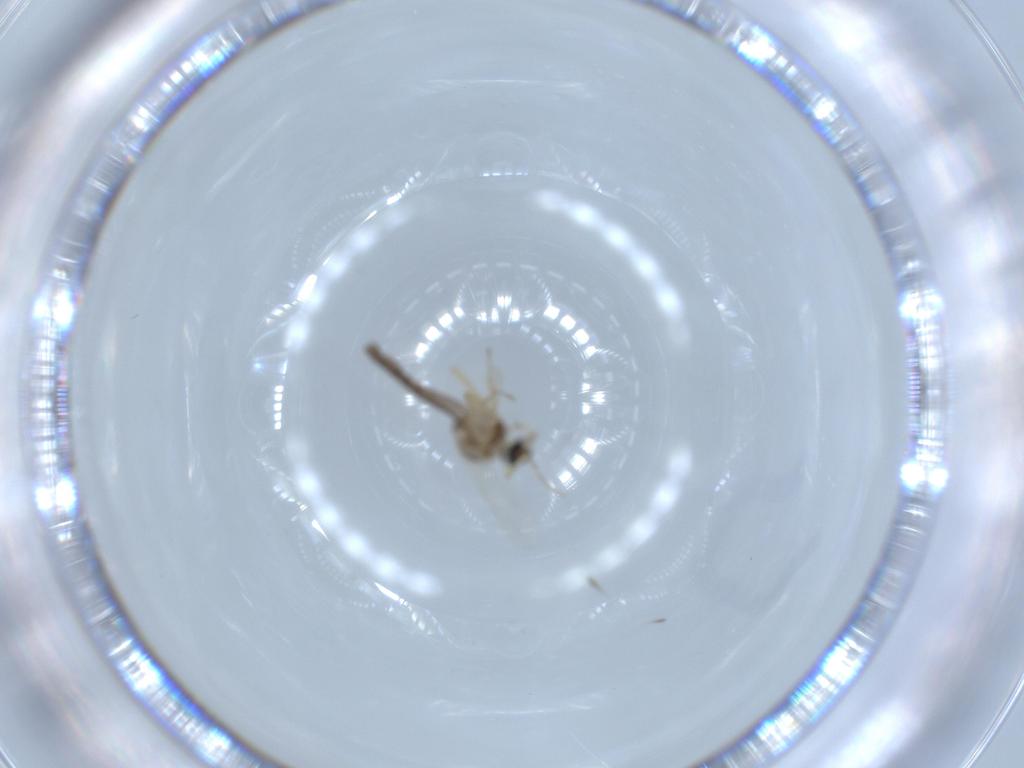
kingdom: Animalia
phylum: Arthropoda
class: Insecta
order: Diptera
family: Ceratopogonidae
